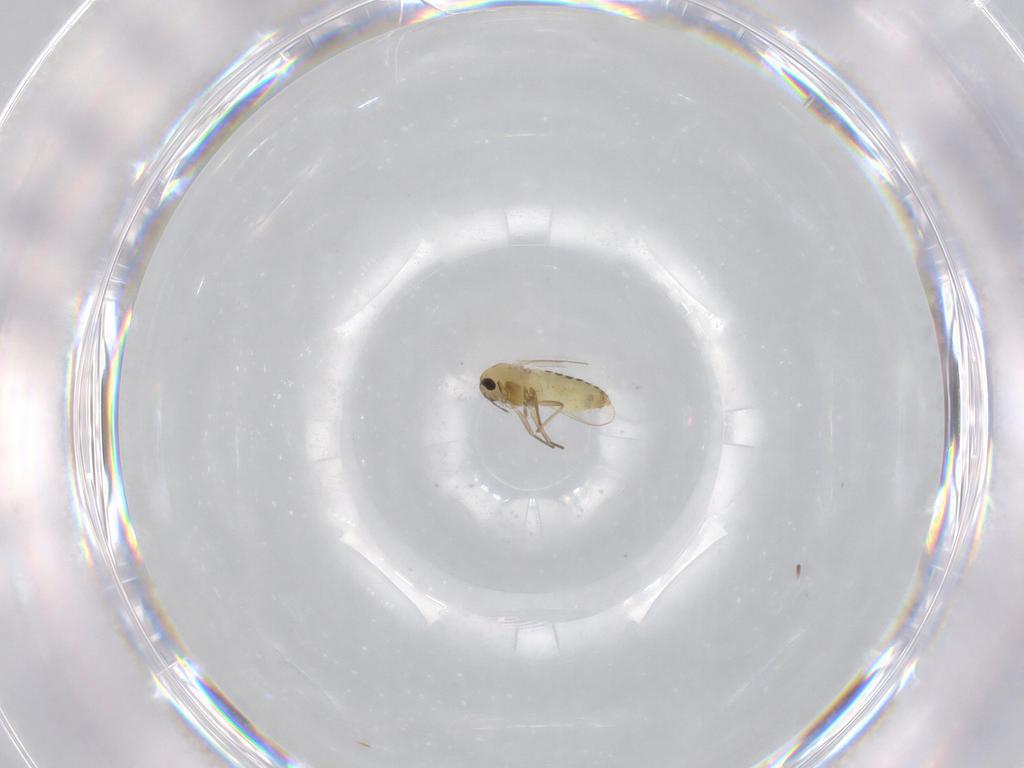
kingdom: Animalia
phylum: Arthropoda
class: Insecta
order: Diptera
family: Chironomidae
